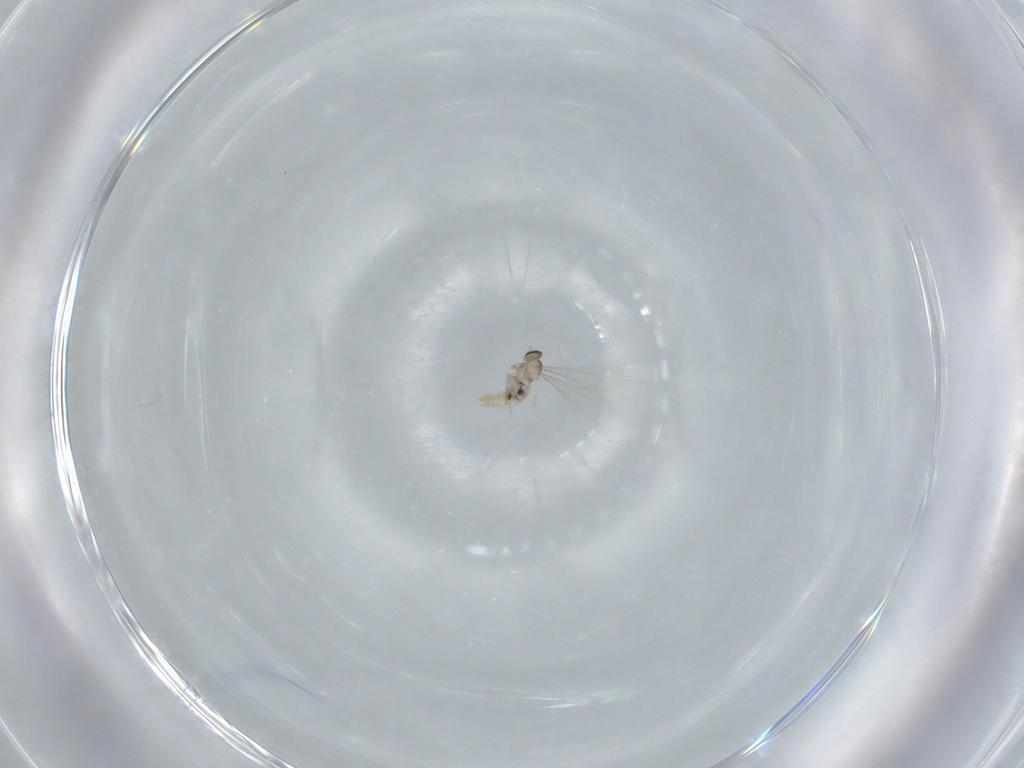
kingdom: Animalia
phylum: Arthropoda
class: Insecta
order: Diptera
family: Cecidomyiidae
